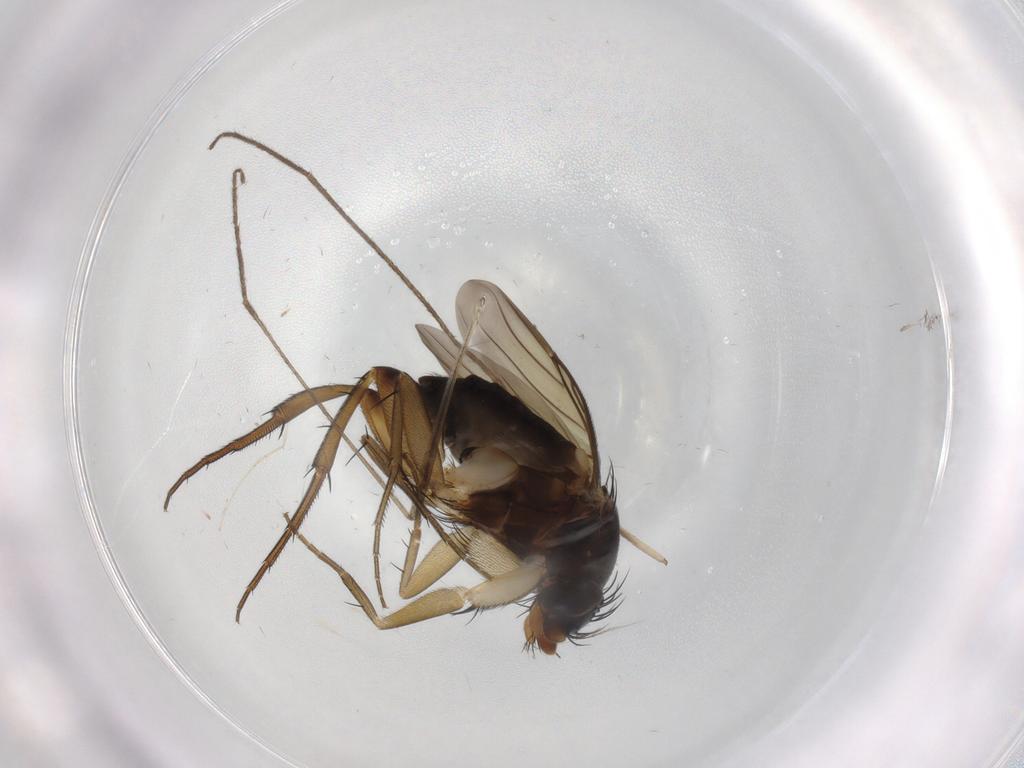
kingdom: Animalia
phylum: Arthropoda
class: Insecta
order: Diptera
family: Phoridae
